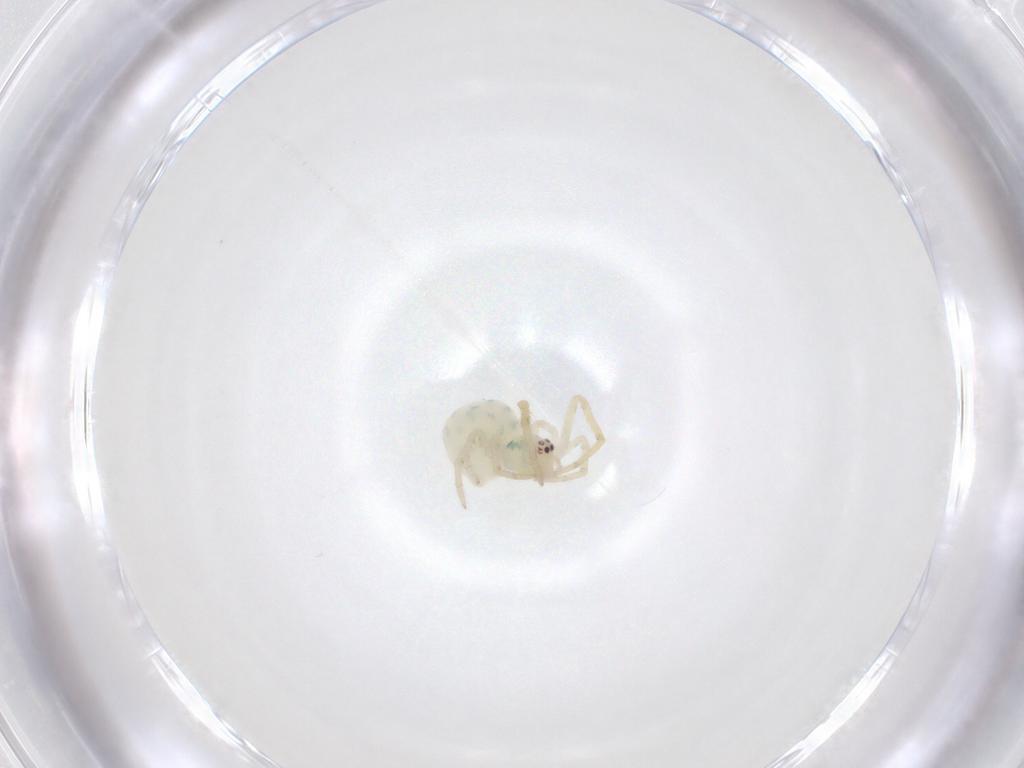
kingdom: Animalia
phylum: Arthropoda
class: Arachnida
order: Araneae
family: Theridiidae
